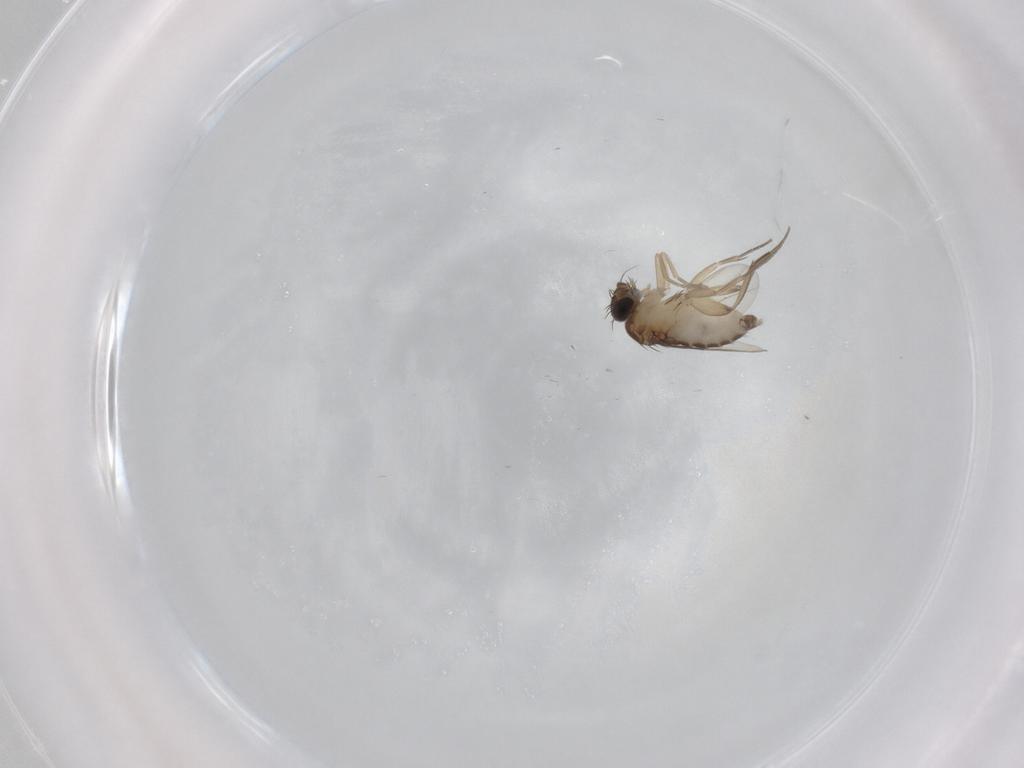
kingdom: Animalia
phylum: Arthropoda
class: Insecta
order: Diptera
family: Phoridae
